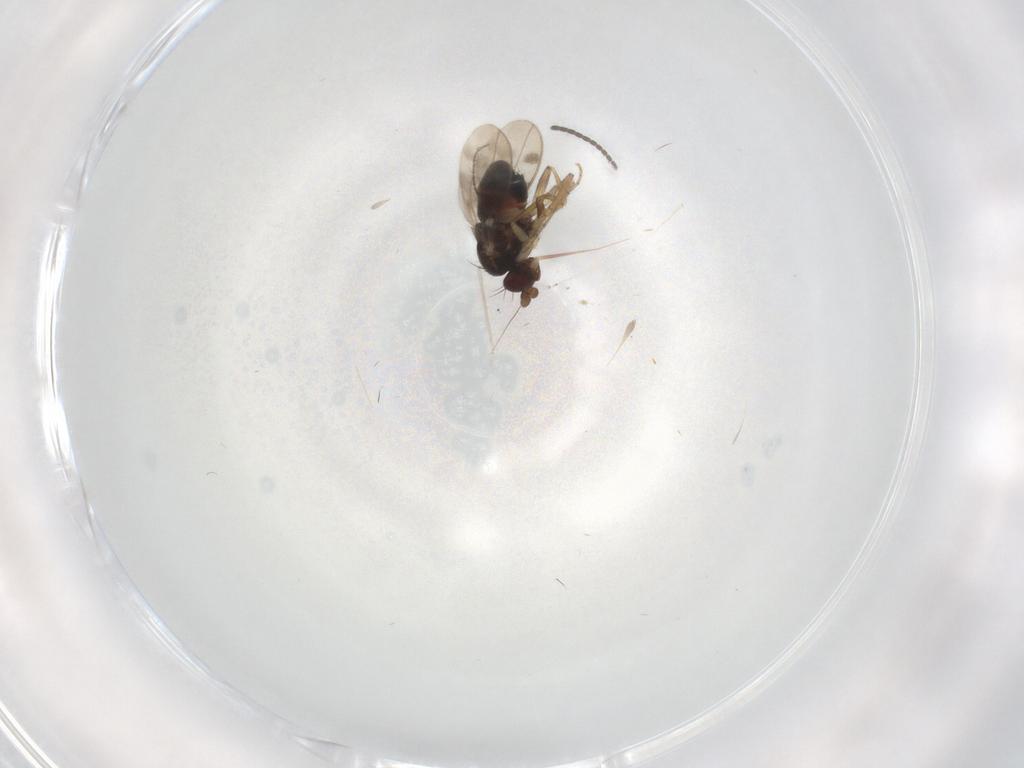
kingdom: Animalia
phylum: Arthropoda
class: Insecta
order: Diptera
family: Sphaeroceridae
